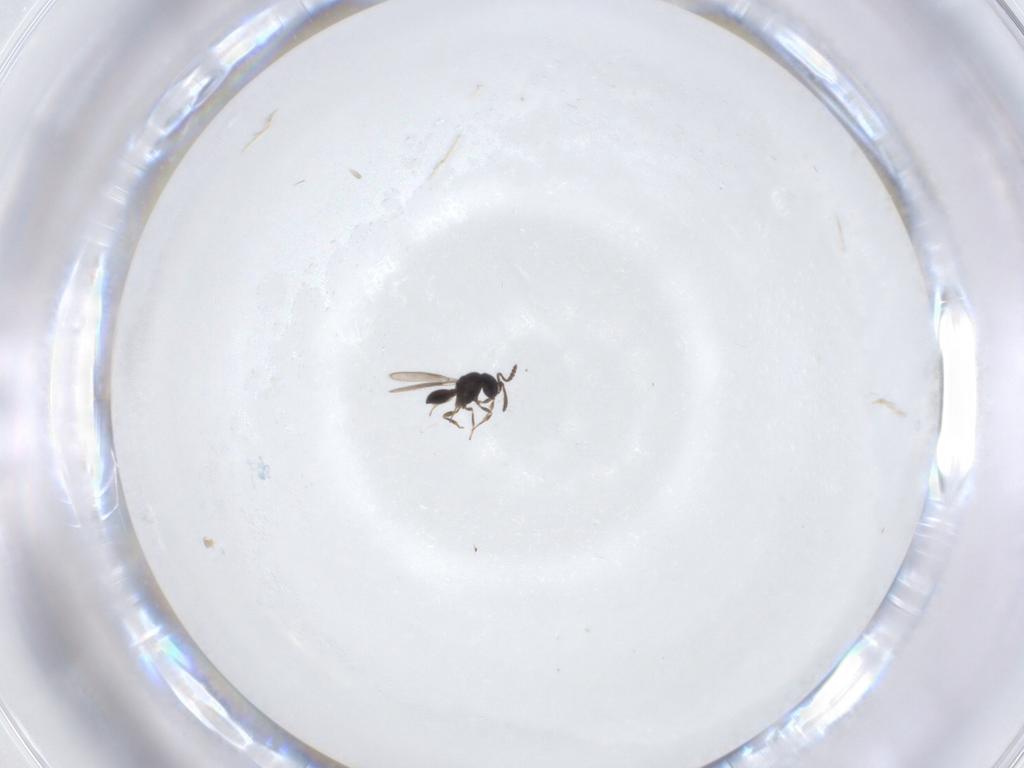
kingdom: Animalia
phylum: Arthropoda
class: Insecta
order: Hymenoptera
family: Scelionidae
